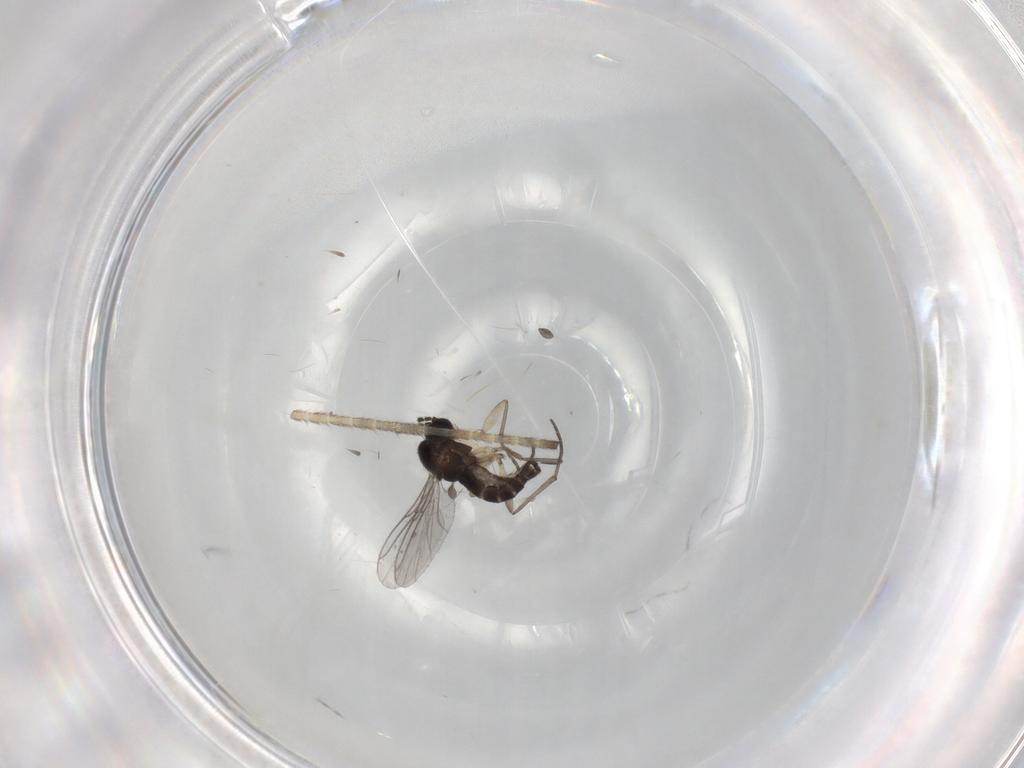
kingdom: Animalia
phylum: Arthropoda
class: Insecta
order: Diptera
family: Sciaridae
